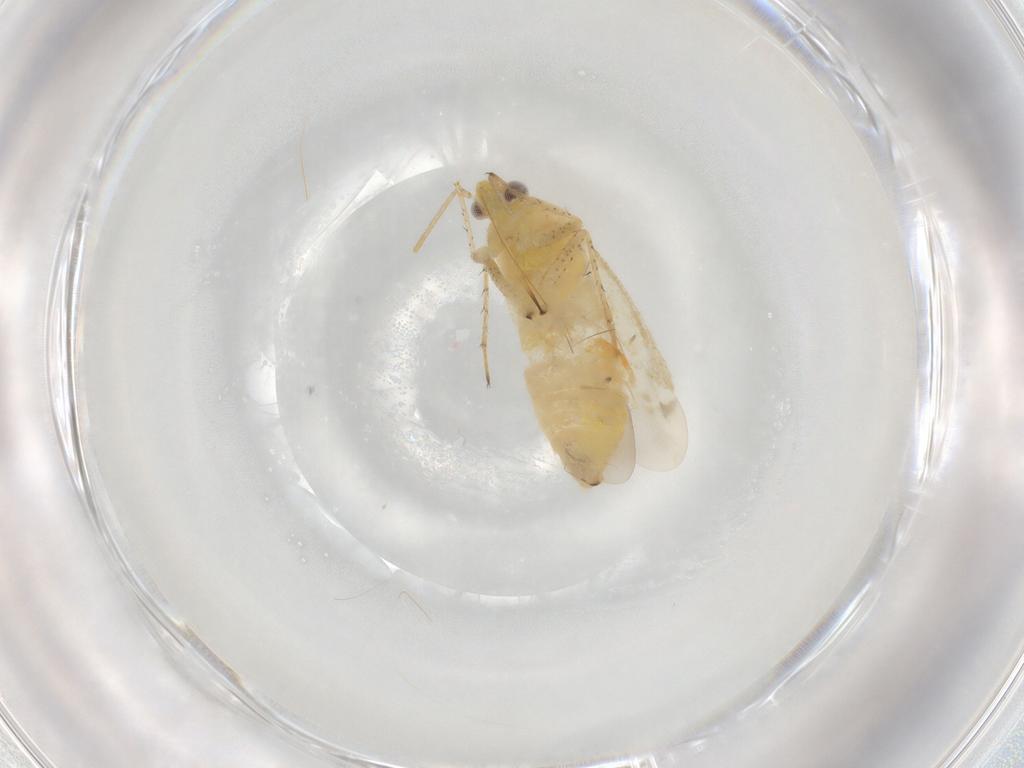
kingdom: Animalia
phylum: Arthropoda
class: Insecta
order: Hemiptera
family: Miridae
